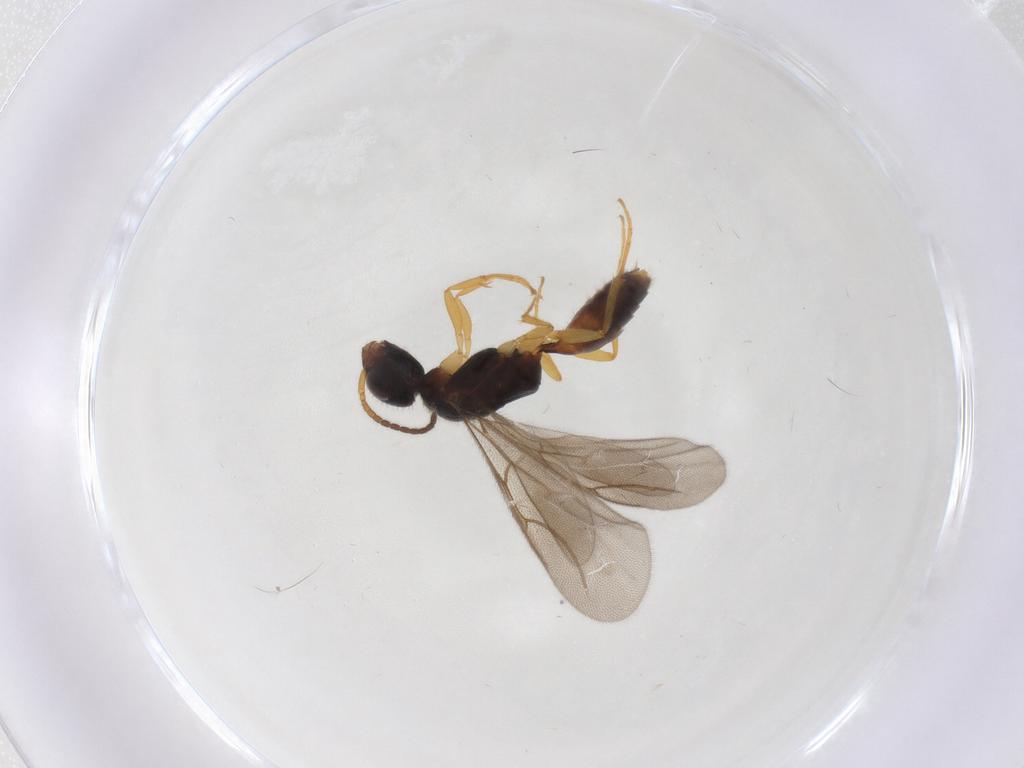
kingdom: Animalia
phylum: Arthropoda
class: Insecta
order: Hymenoptera
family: Bethylidae
